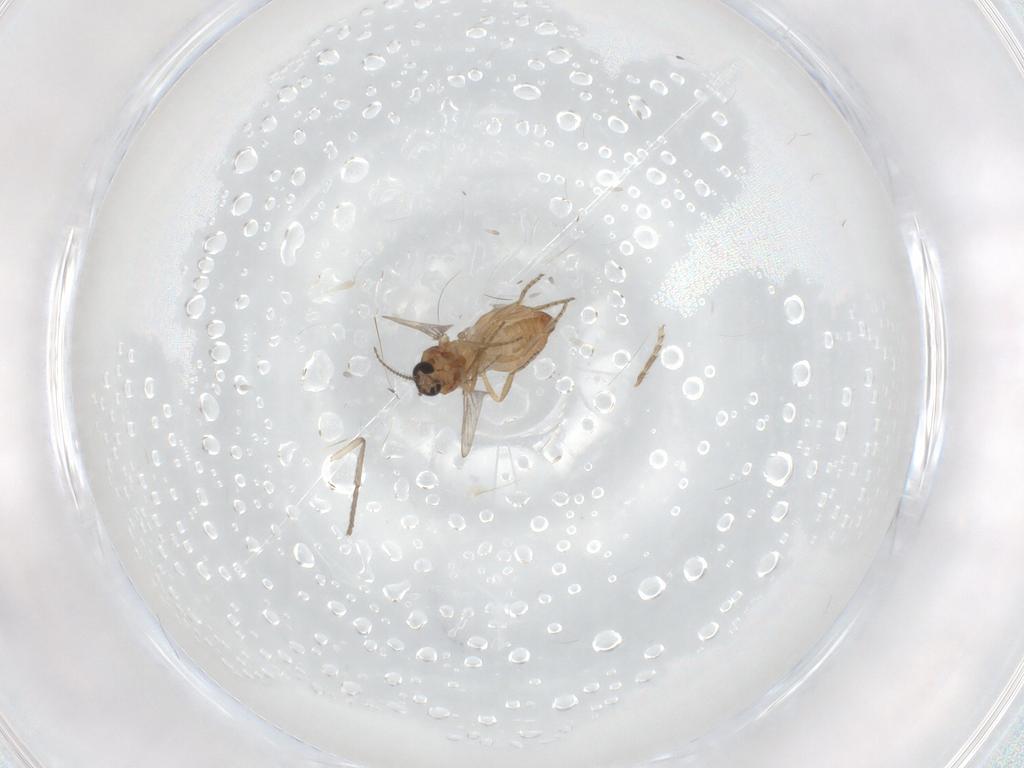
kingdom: Animalia
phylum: Arthropoda
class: Insecta
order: Diptera
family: Ceratopogonidae
